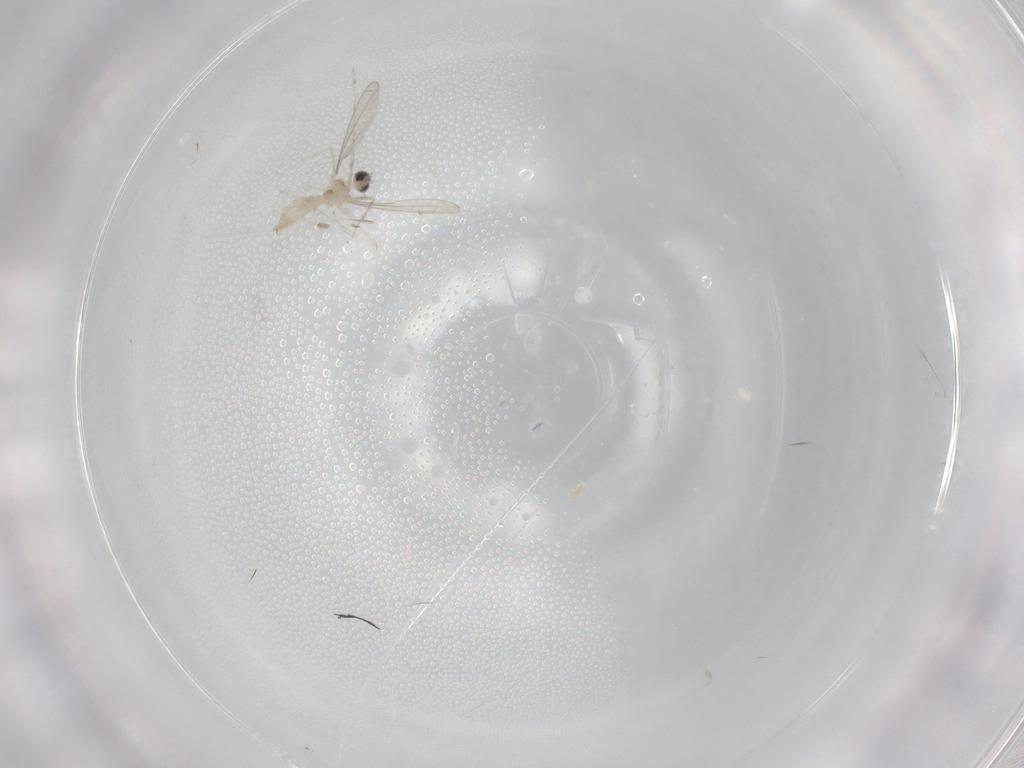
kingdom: Animalia
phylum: Arthropoda
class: Insecta
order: Diptera
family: Cecidomyiidae
